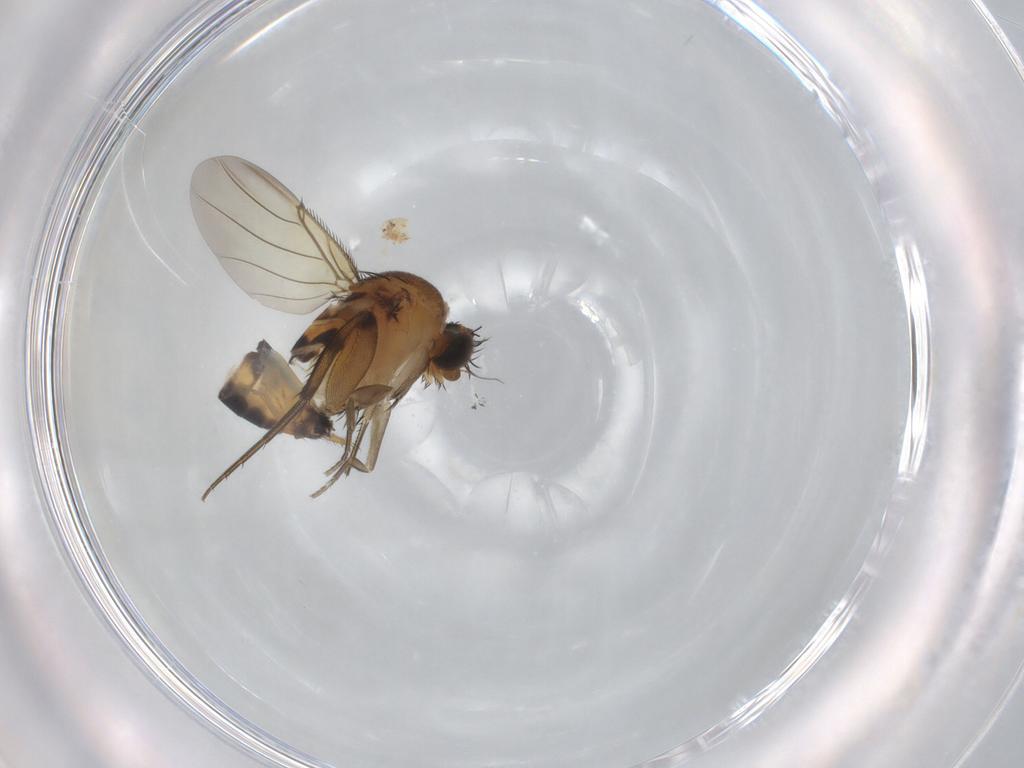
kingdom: Animalia
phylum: Arthropoda
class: Insecta
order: Diptera
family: Phoridae
